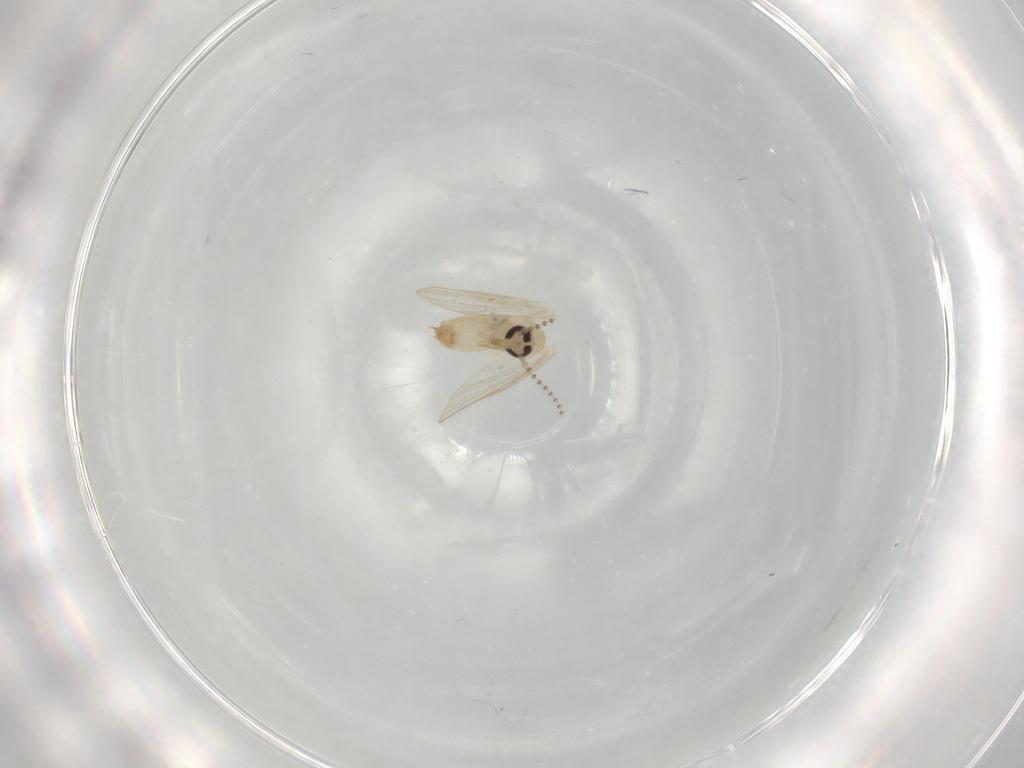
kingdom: Animalia
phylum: Arthropoda
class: Insecta
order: Diptera
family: Psychodidae
